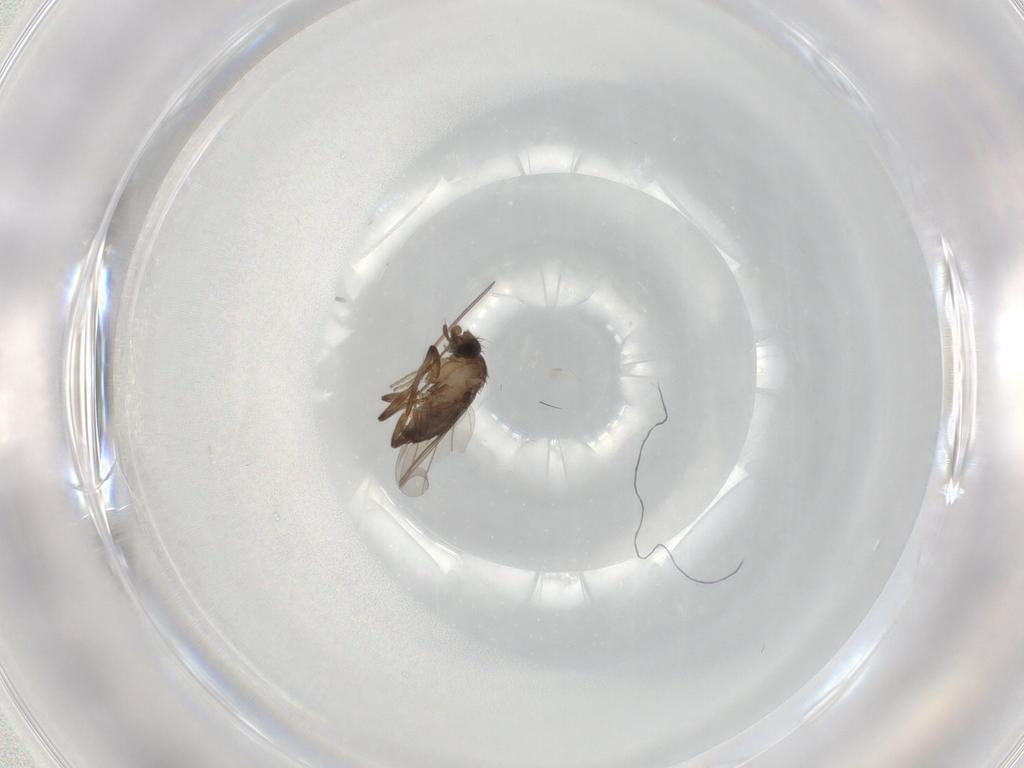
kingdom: Animalia
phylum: Arthropoda
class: Insecta
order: Diptera
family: Phoridae
